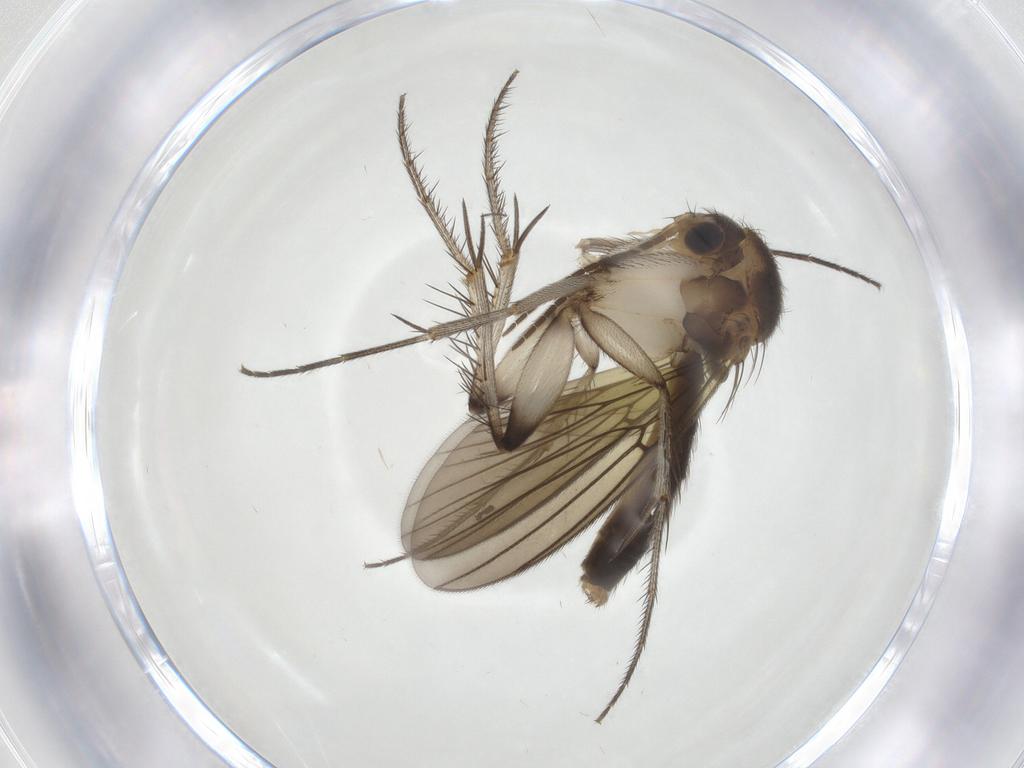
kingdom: Animalia
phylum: Arthropoda
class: Insecta
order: Diptera
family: Mycetophilidae
